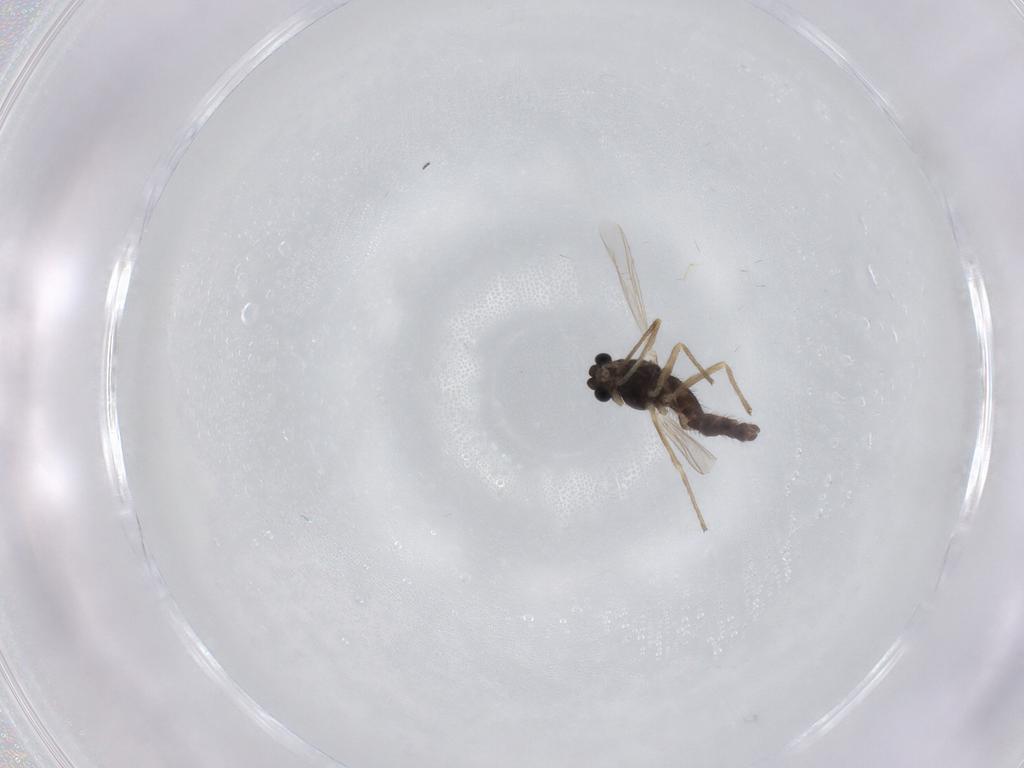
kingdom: Animalia
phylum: Arthropoda
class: Insecta
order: Diptera
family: Chironomidae
